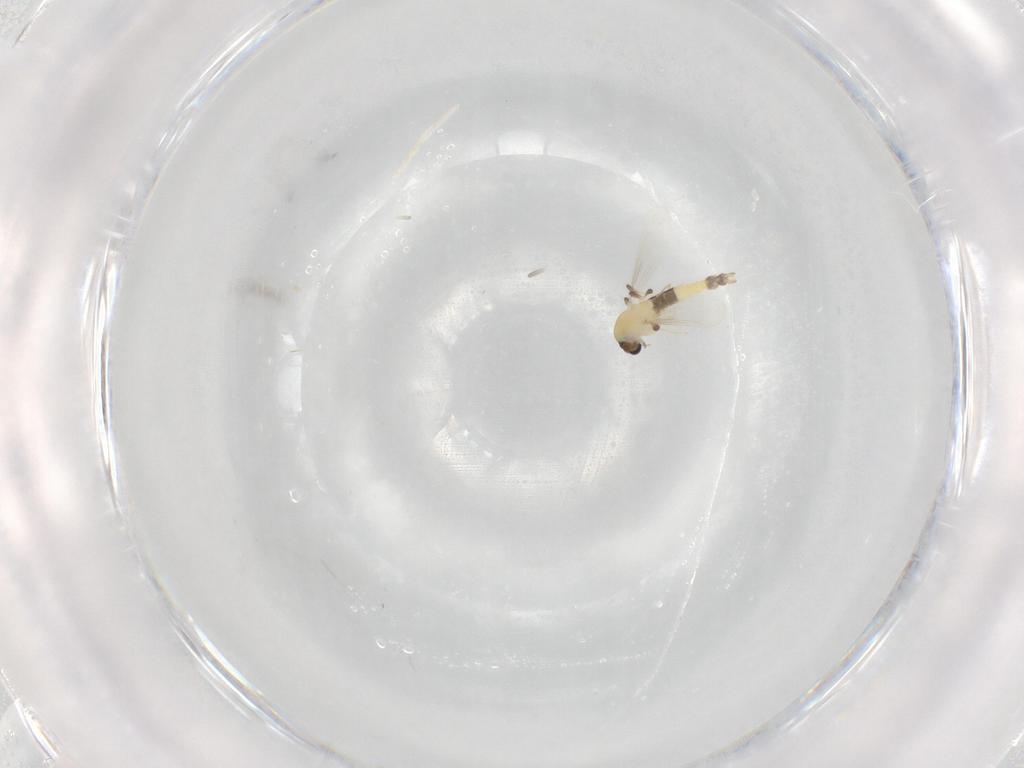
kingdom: Animalia
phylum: Arthropoda
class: Insecta
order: Diptera
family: Chironomidae
